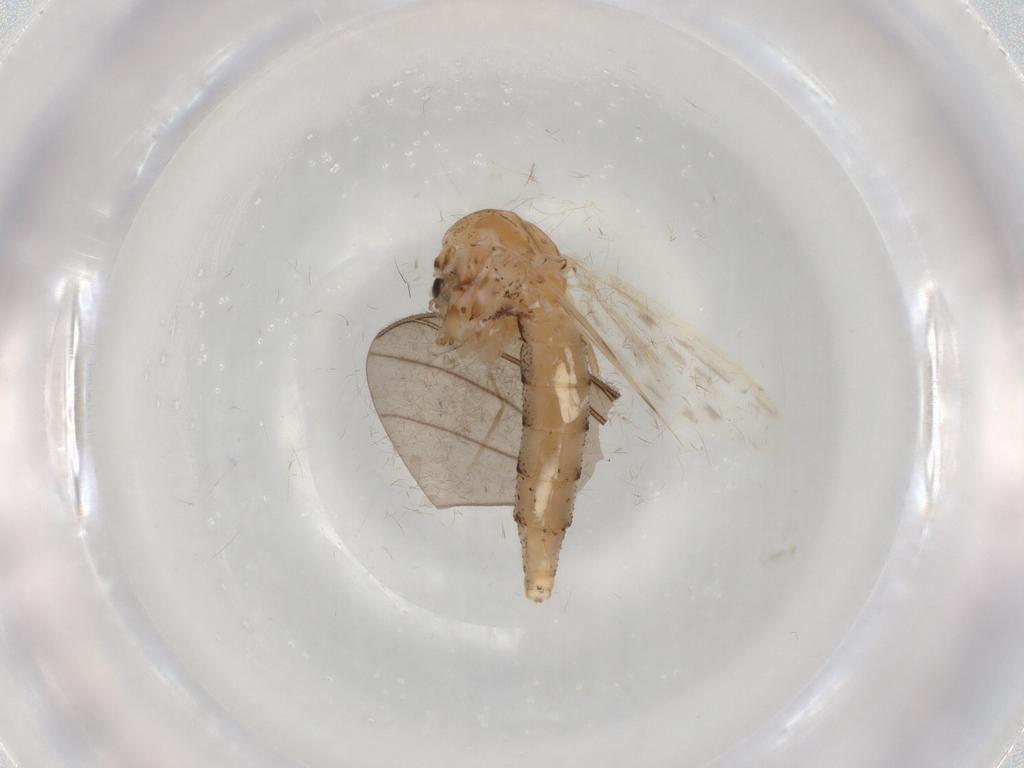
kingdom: Animalia
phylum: Arthropoda
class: Insecta
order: Diptera
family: Chaoboridae
